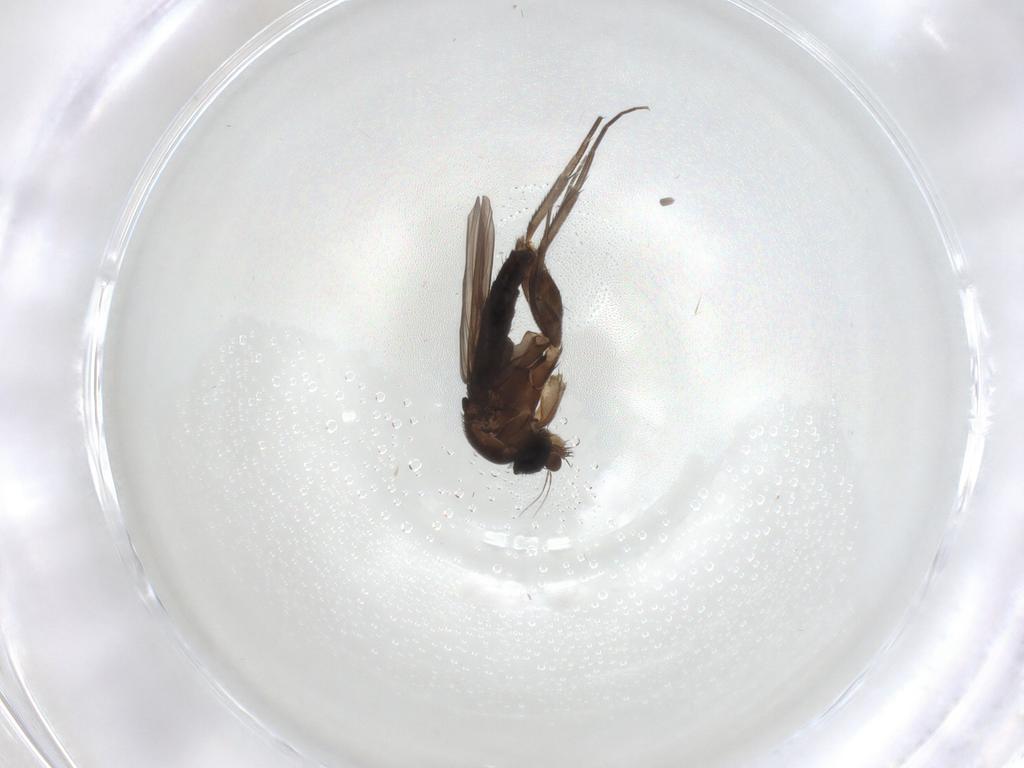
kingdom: Animalia
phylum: Arthropoda
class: Insecta
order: Diptera
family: Limoniidae
